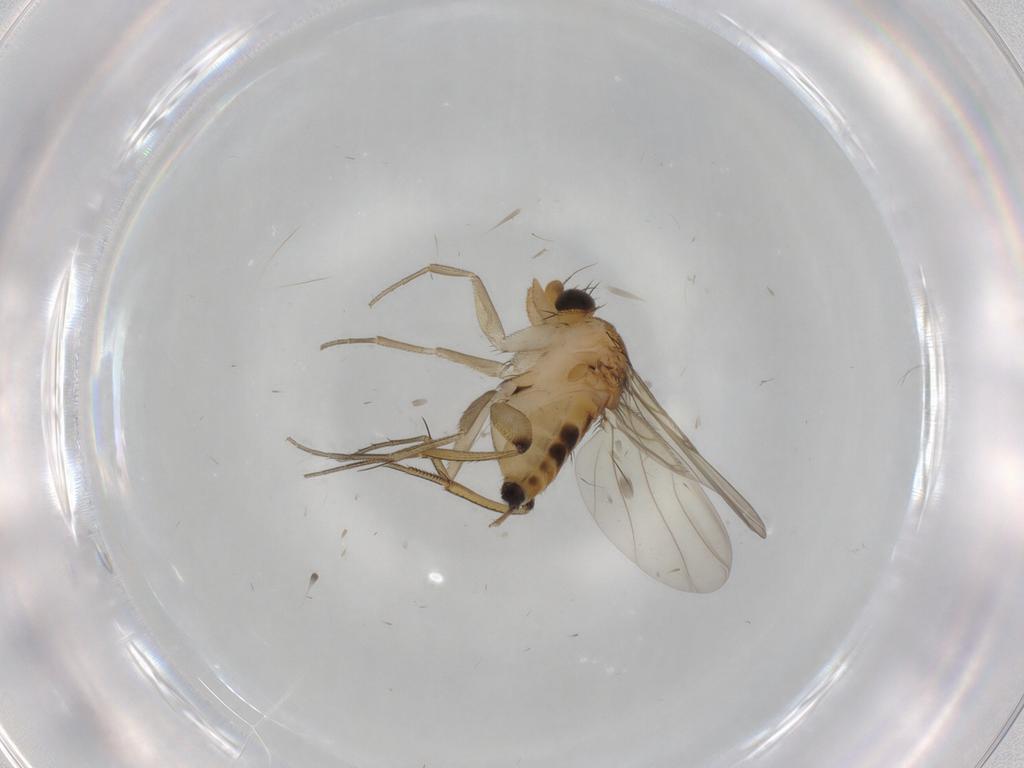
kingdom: Animalia
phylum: Arthropoda
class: Insecta
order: Diptera
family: Phoridae
